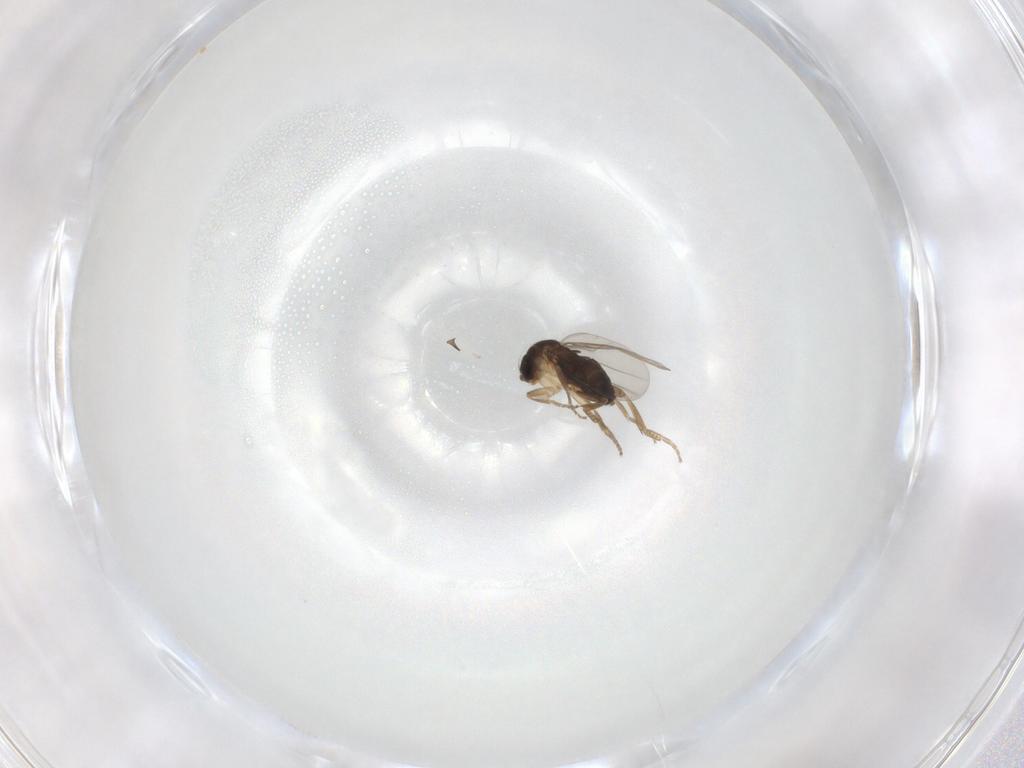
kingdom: Animalia
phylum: Arthropoda
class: Insecta
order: Diptera
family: Phoridae
